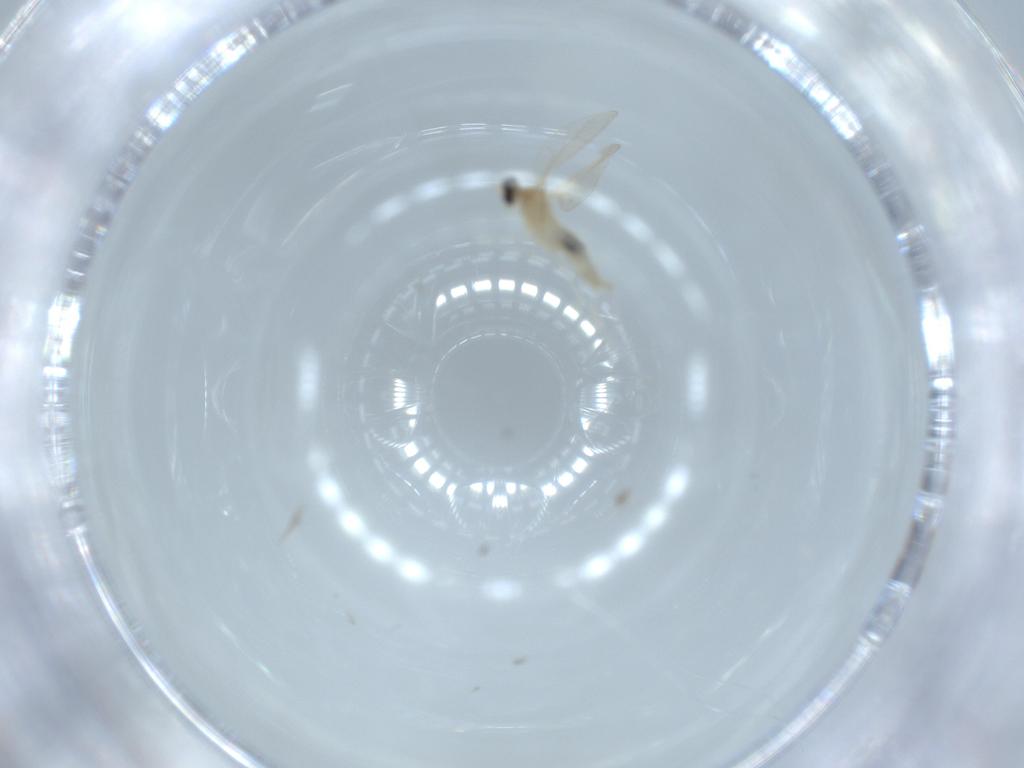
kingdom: Animalia
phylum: Arthropoda
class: Insecta
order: Diptera
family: Cecidomyiidae
